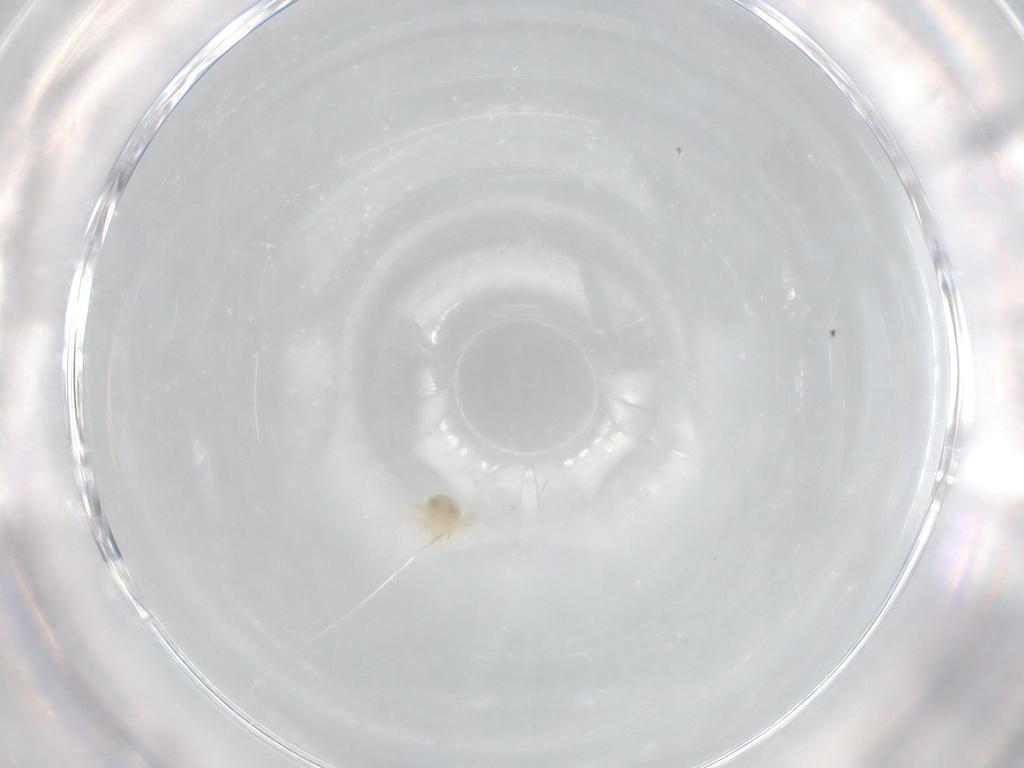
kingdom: Animalia
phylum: Arthropoda
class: Arachnida
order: Trombidiformes
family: Anystidae
